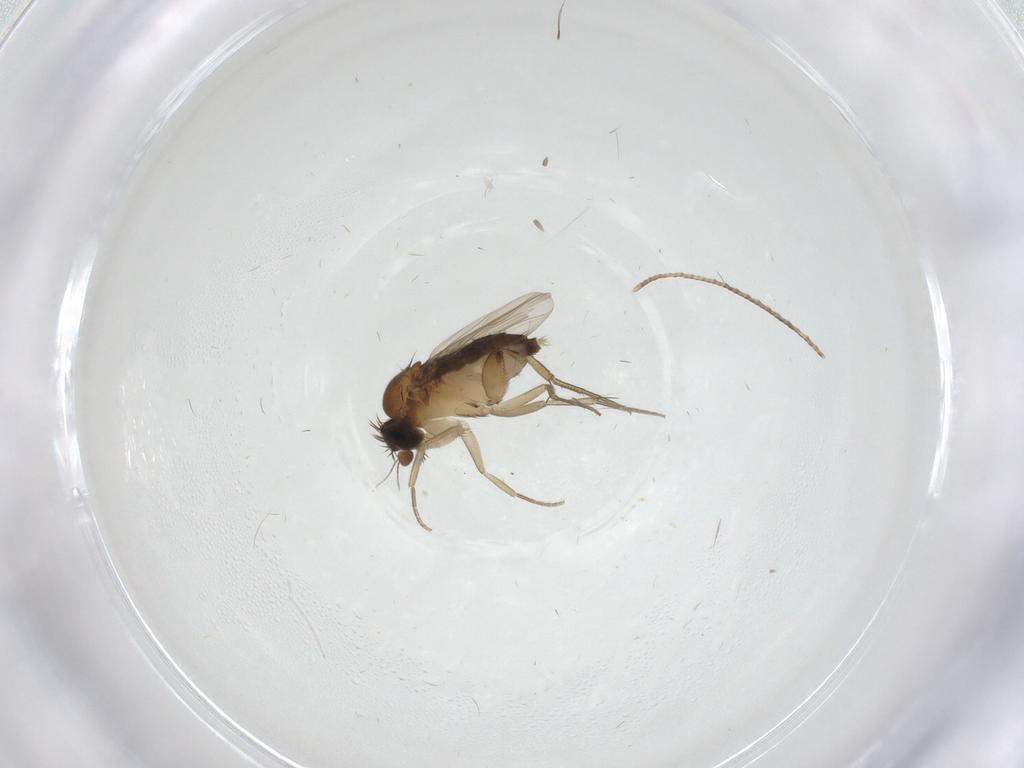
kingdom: Animalia
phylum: Arthropoda
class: Insecta
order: Diptera
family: Phoridae
